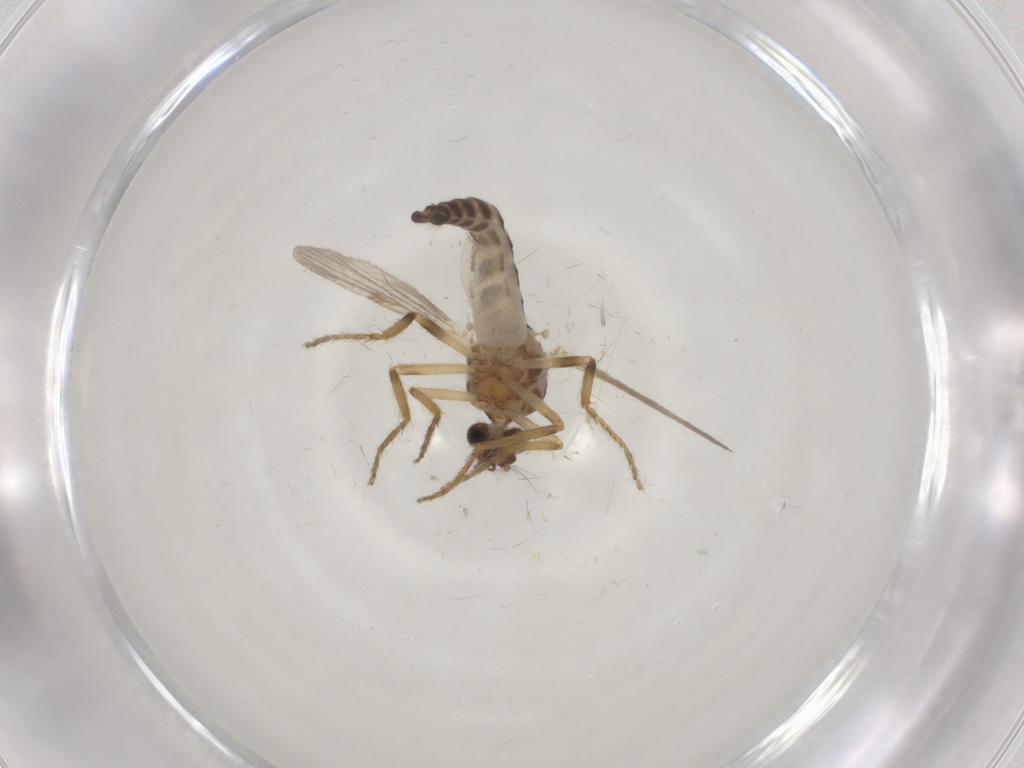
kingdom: Animalia
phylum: Arthropoda
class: Insecta
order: Diptera
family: Ceratopogonidae
